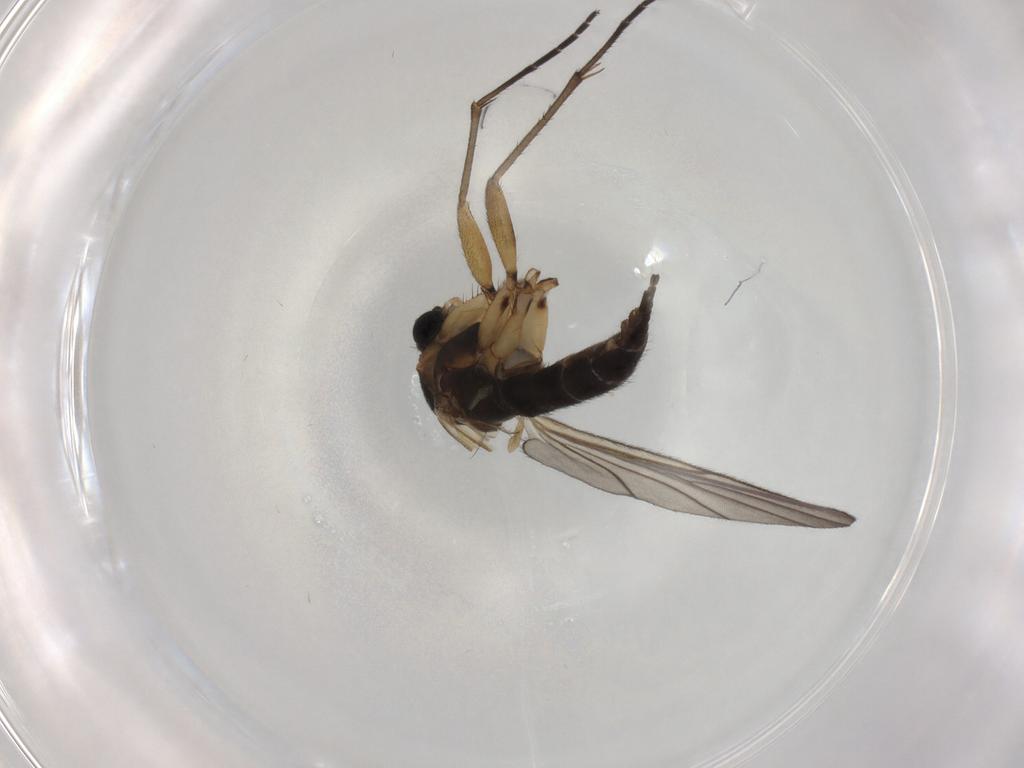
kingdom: Animalia
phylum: Arthropoda
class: Insecta
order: Diptera
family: Sciaridae
